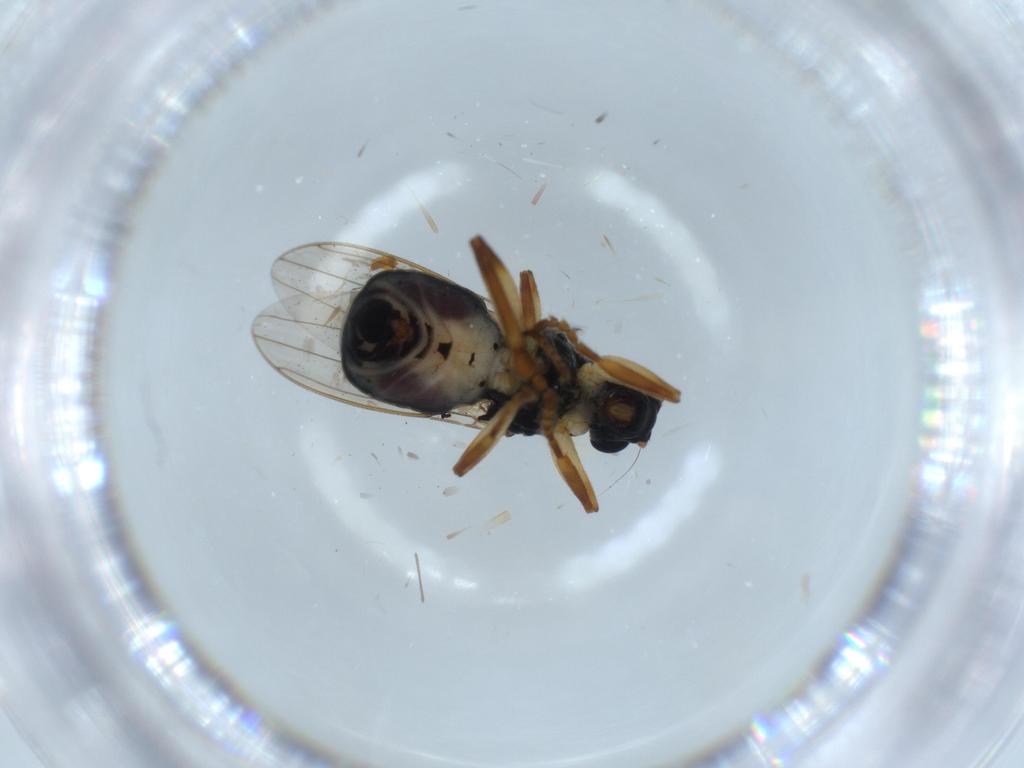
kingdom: Animalia
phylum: Arthropoda
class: Insecta
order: Diptera
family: Sphaeroceridae
